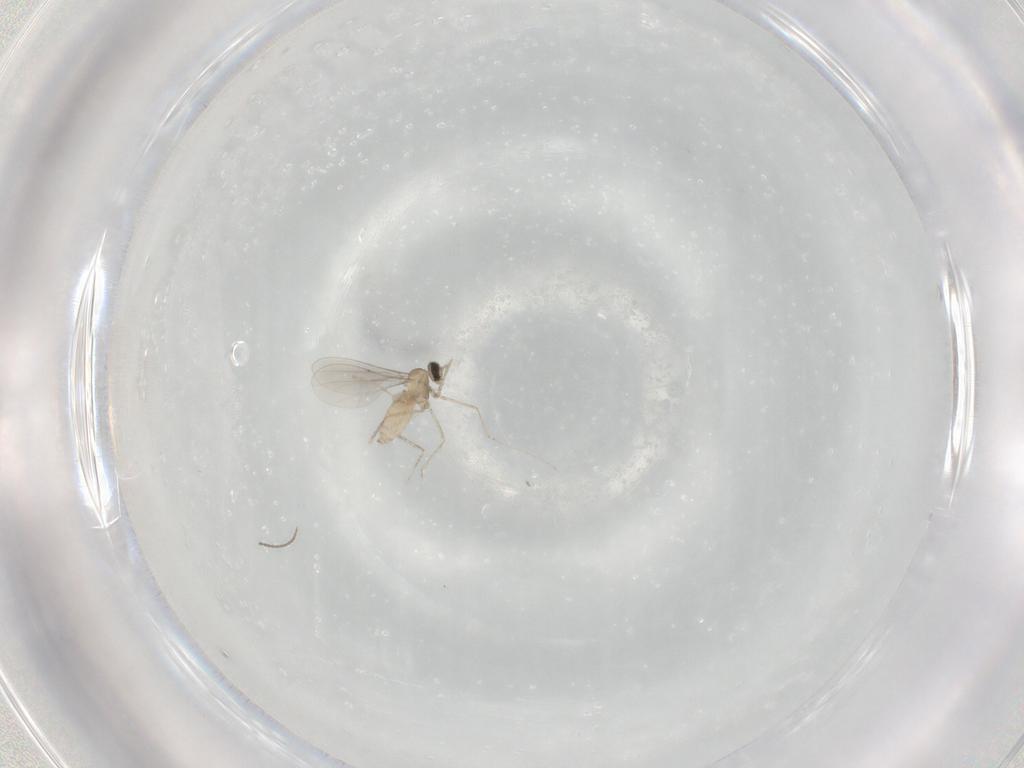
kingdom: Animalia
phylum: Arthropoda
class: Insecta
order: Diptera
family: Cecidomyiidae
